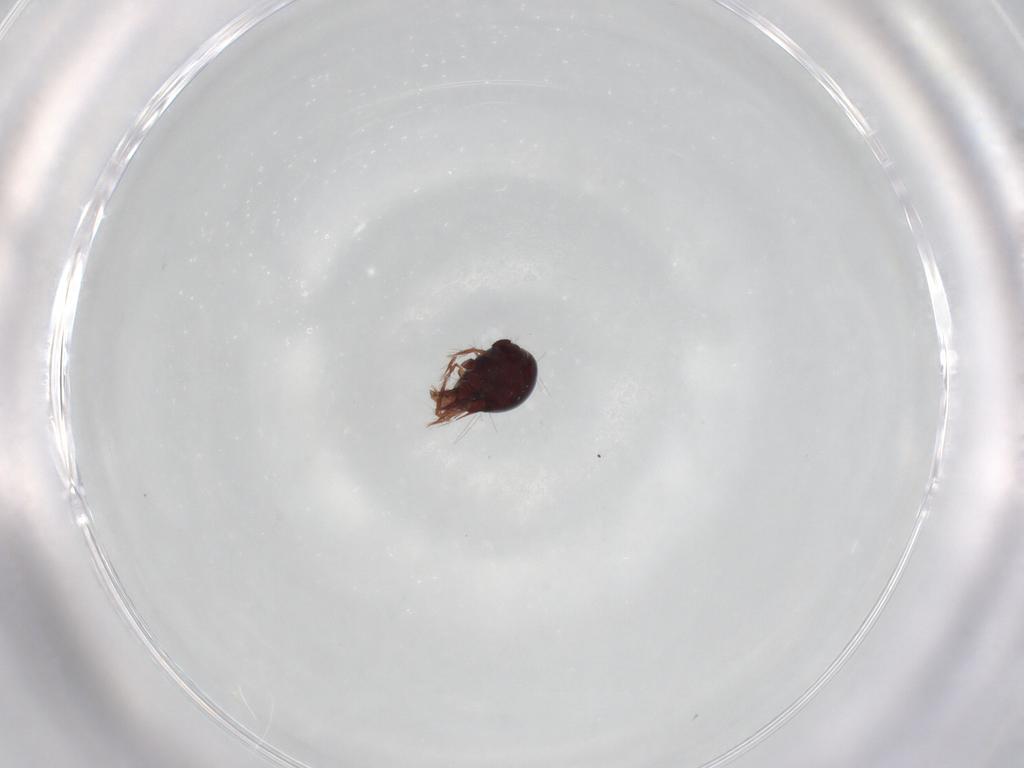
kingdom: Animalia
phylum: Arthropoda
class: Arachnida
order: Sarcoptiformes
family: Ceratoppiidae
